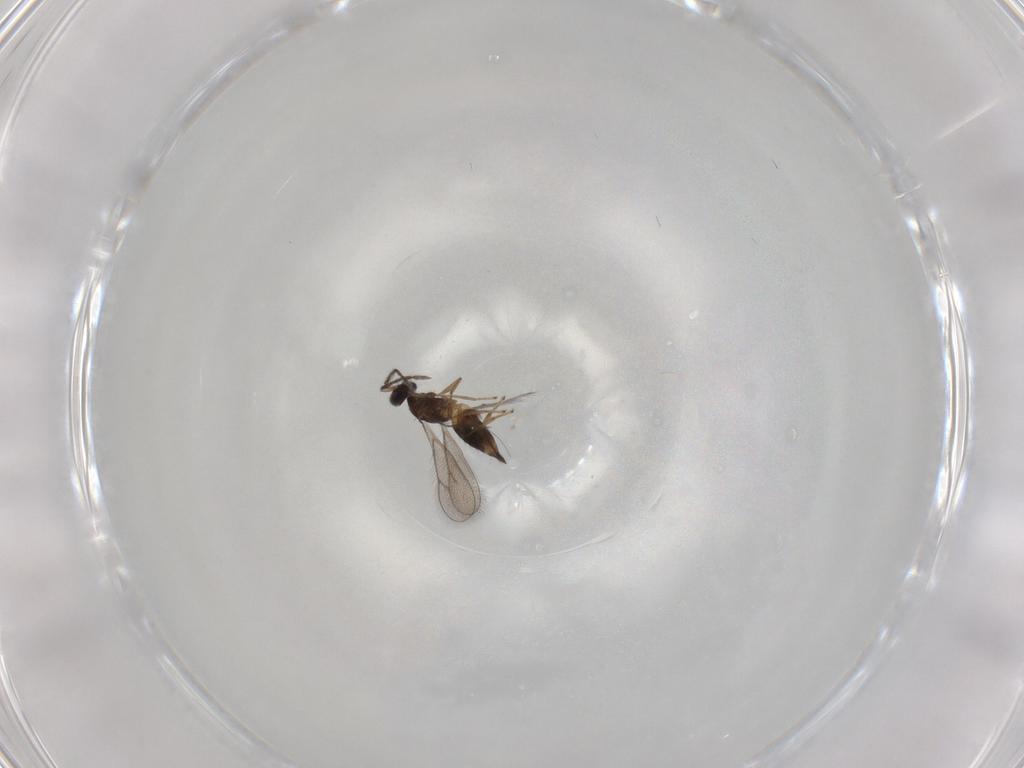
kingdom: Animalia
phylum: Arthropoda
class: Insecta
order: Hymenoptera
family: Eulophidae
